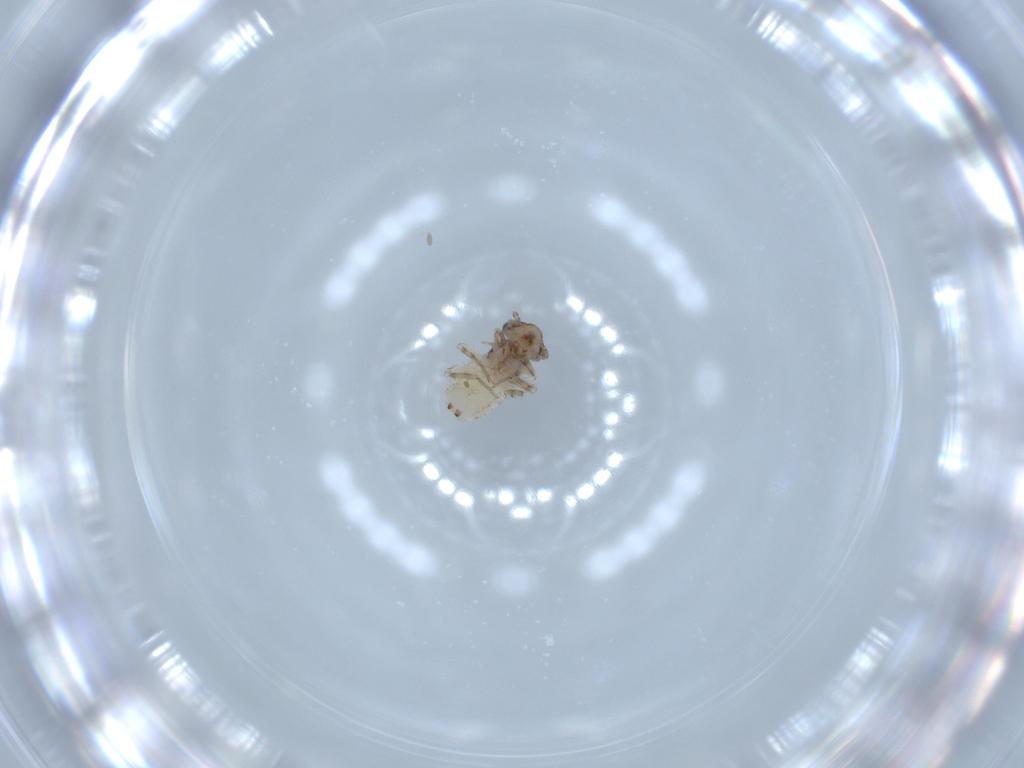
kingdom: Animalia
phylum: Arthropoda
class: Insecta
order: Psocodea
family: Lepidopsocidae
